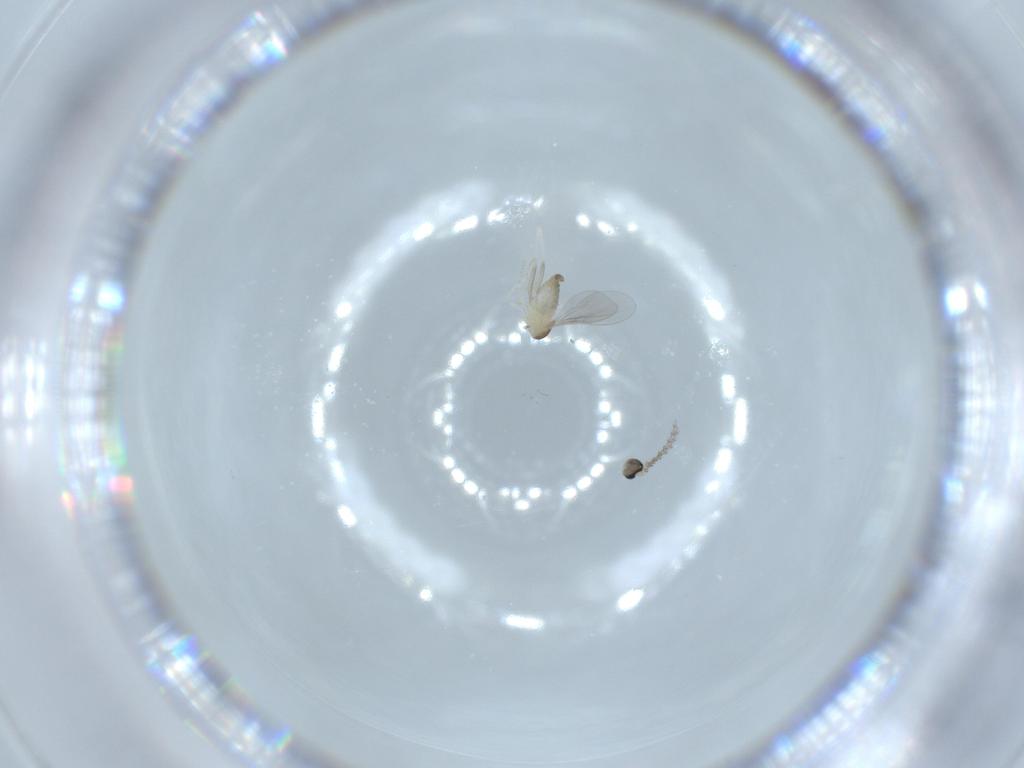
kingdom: Animalia
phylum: Arthropoda
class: Insecta
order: Diptera
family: Cecidomyiidae
